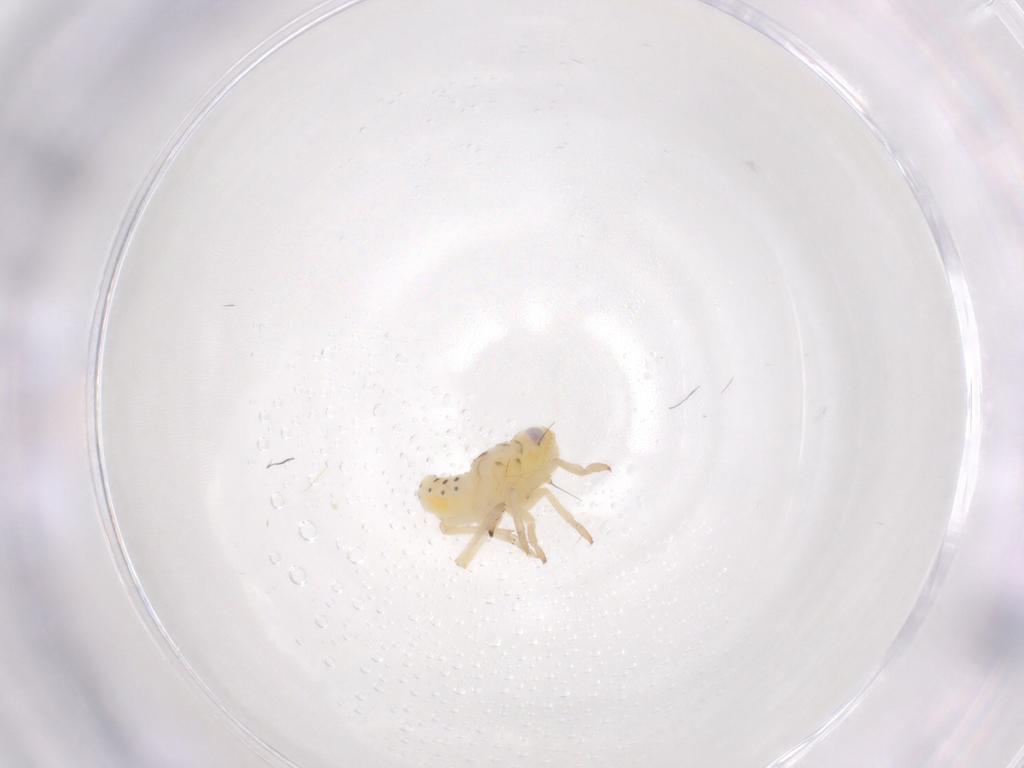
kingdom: Animalia
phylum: Arthropoda
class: Insecta
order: Hemiptera
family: Tropiduchidae
